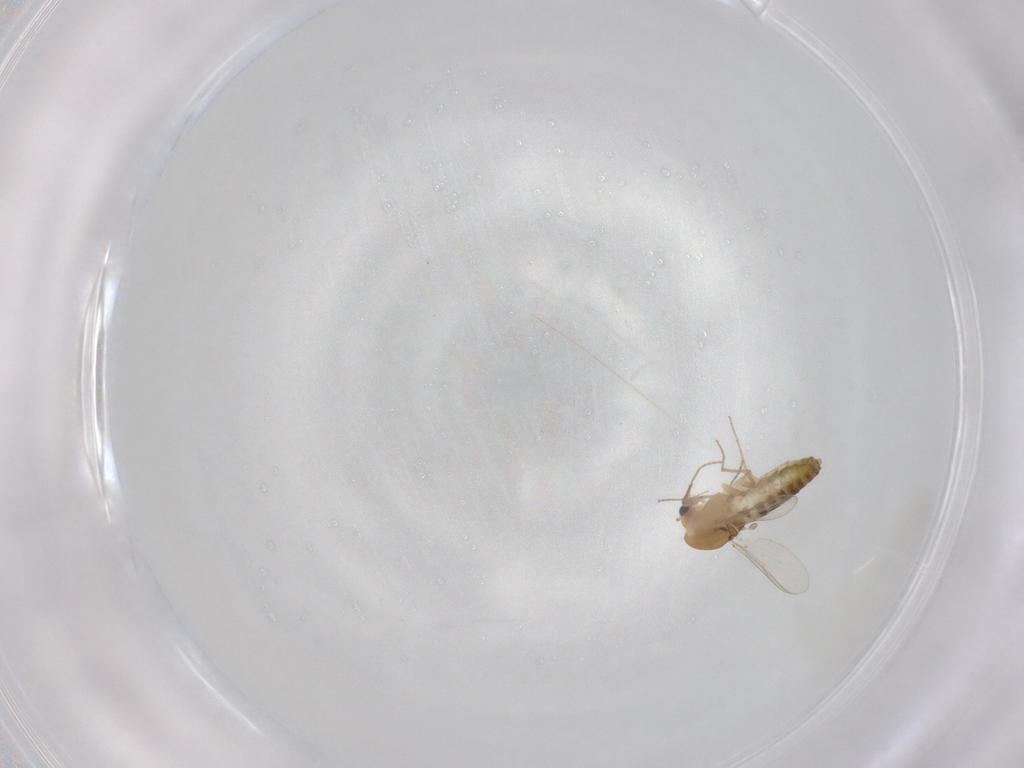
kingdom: Animalia
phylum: Arthropoda
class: Insecta
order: Diptera
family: Chironomidae
